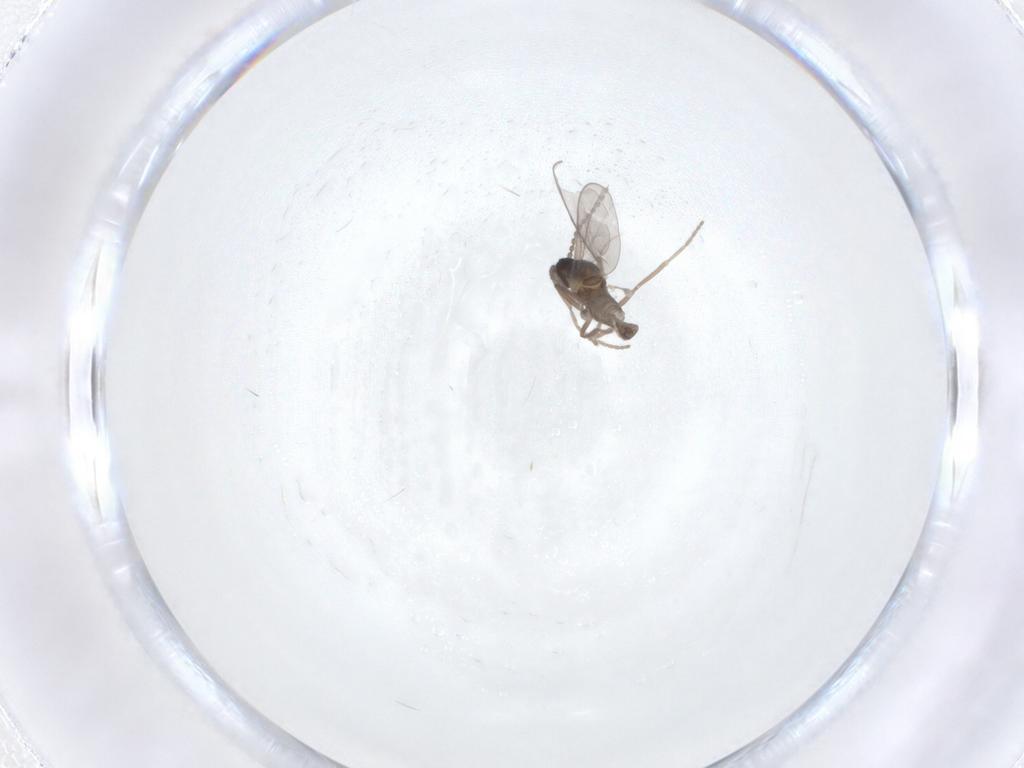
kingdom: Animalia
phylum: Arthropoda
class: Insecta
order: Diptera
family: Cecidomyiidae
